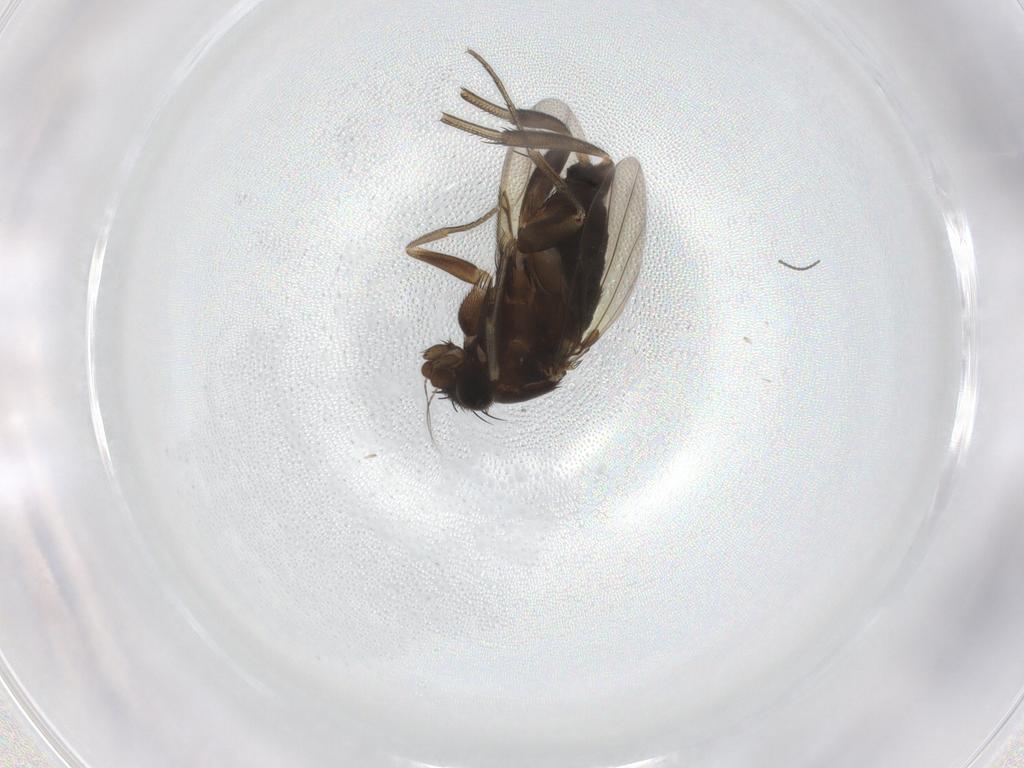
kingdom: Animalia
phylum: Arthropoda
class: Insecta
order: Diptera
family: Phoridae
